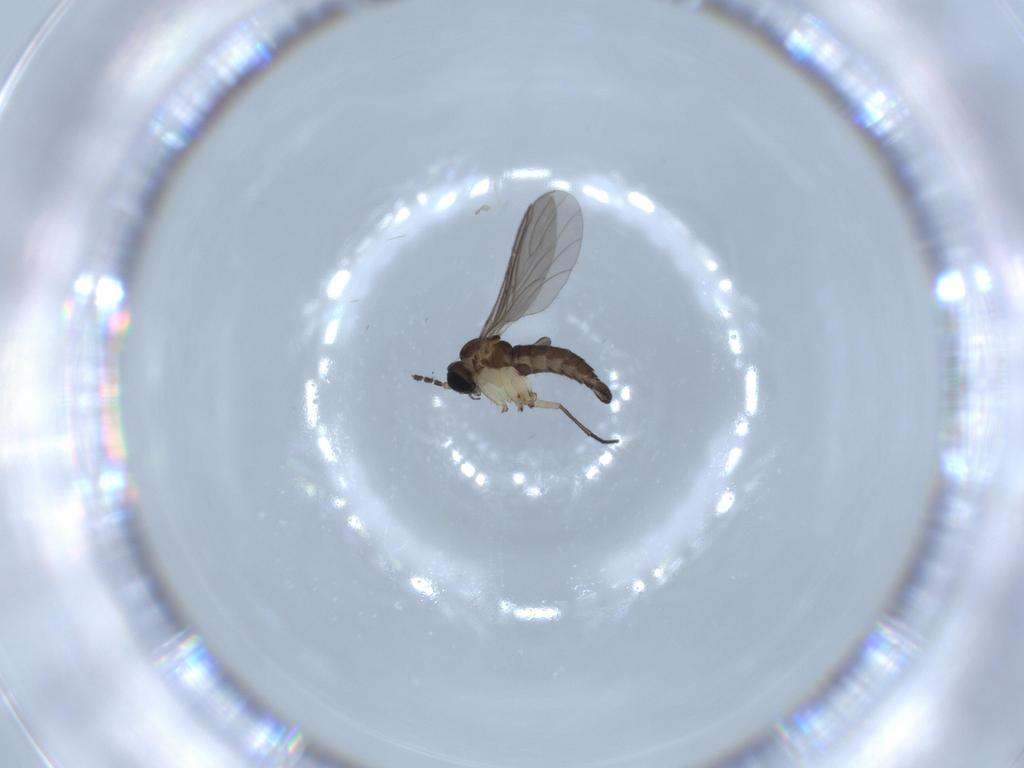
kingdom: Animalia
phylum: Arthropoda
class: Insecta
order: Diptera
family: Sciaridae
